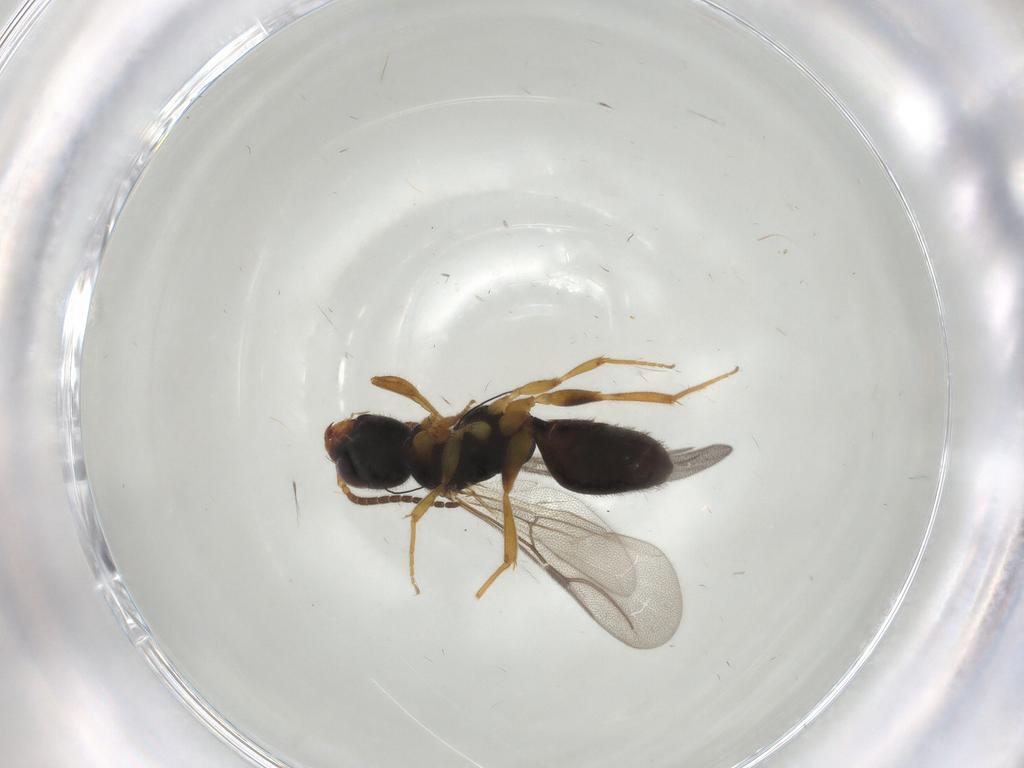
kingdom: Animalia
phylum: Arthropoda
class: Insecta
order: Hymenoptera
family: Bethylidae
